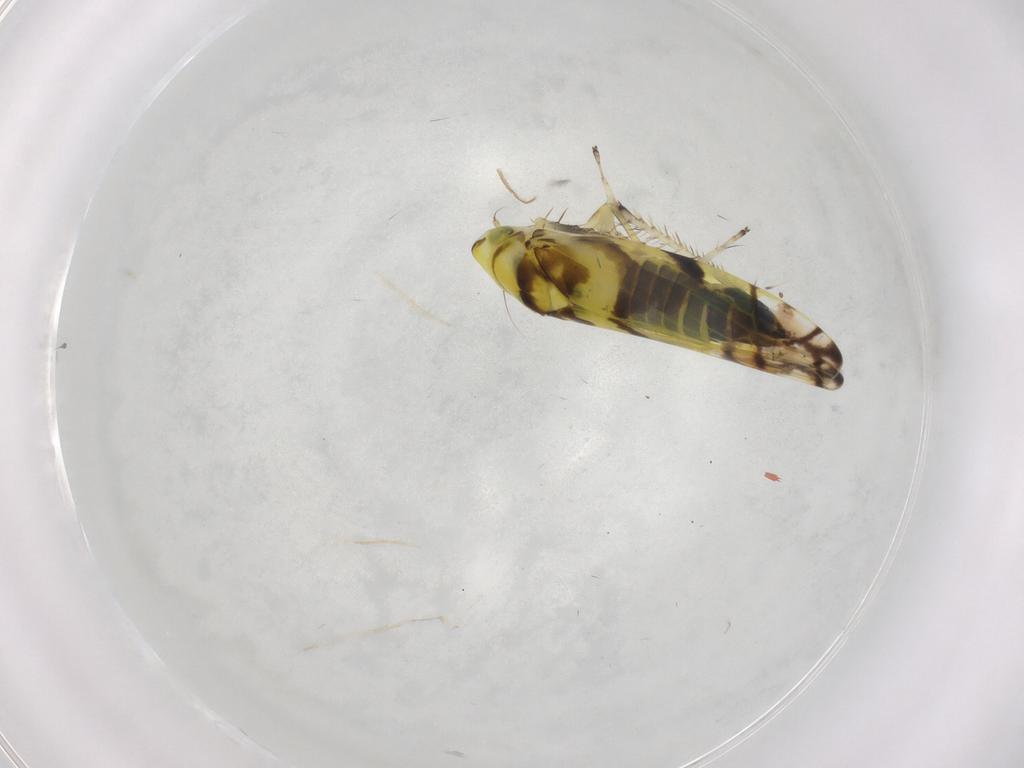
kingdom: Animalia
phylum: Arthropoda
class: Insecta
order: Hemiptera
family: Cicadellidae
